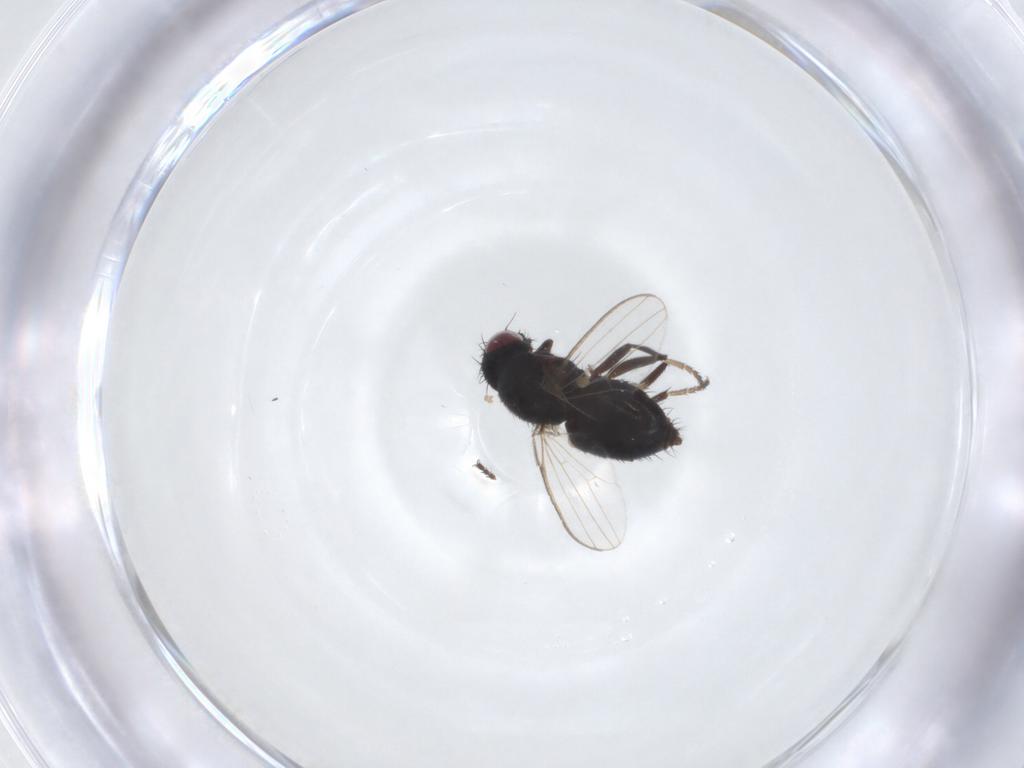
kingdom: Animalia
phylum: Arthropoda
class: Insecta
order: Diptera
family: Milichiidae
